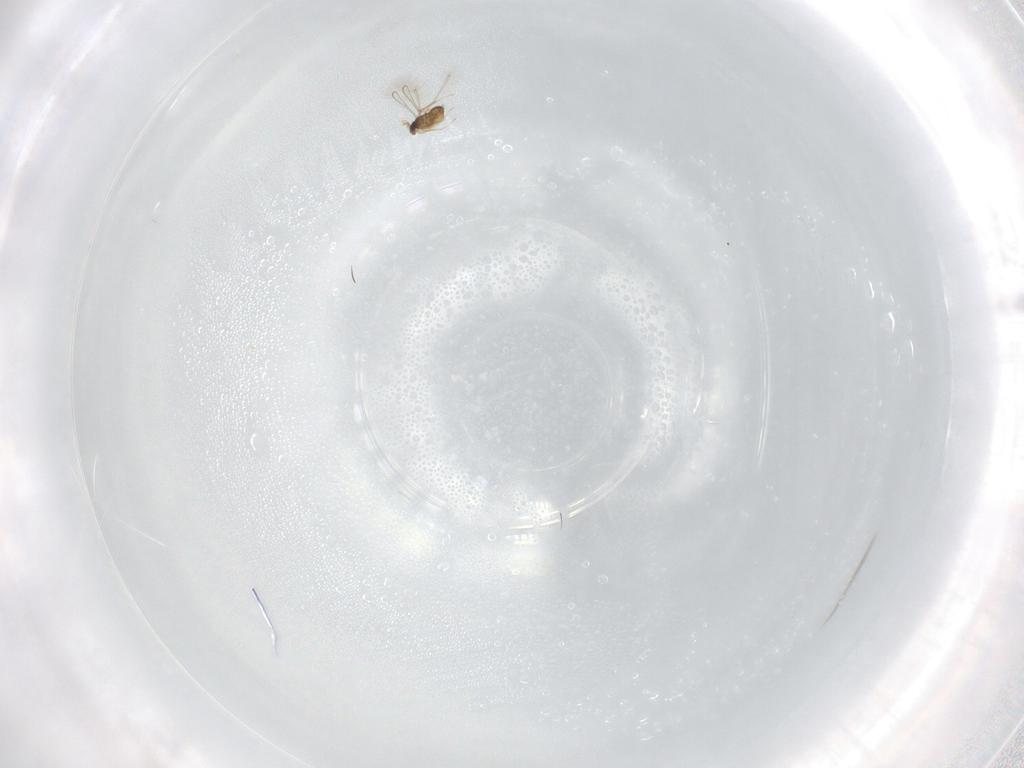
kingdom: Animalia
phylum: Arthropoda
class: Insecta
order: Hymenoptera
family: Mymaridae
